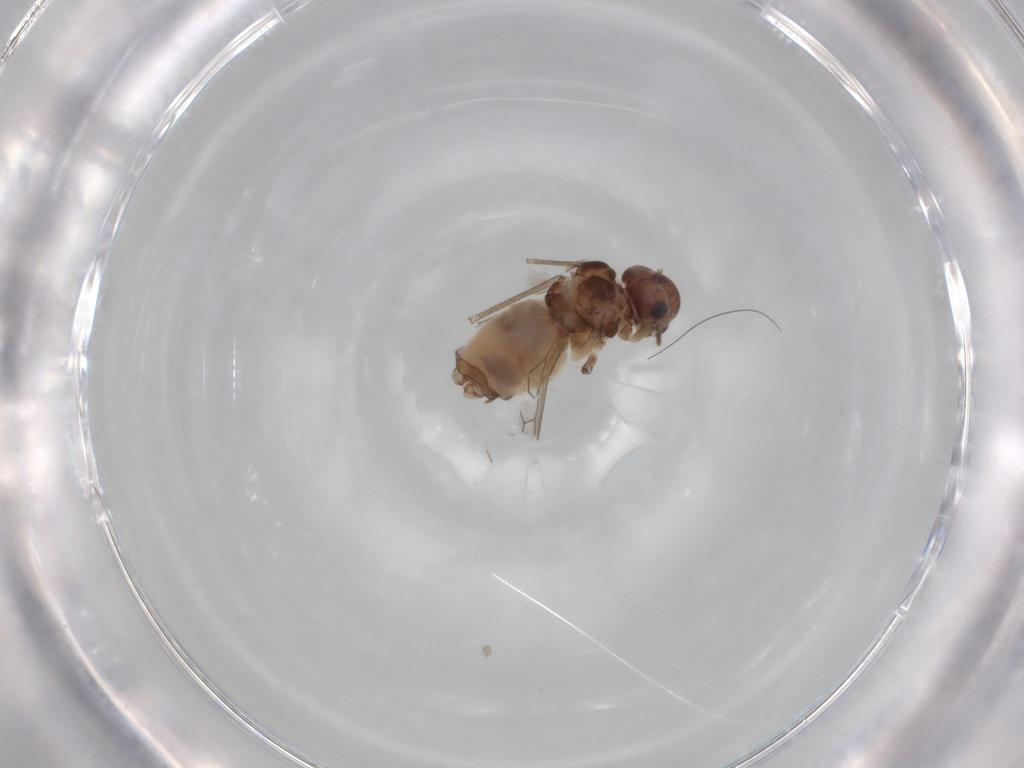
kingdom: Animalia
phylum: Arthropoda
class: Insecta
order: Psocodea
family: Peripsocidae
